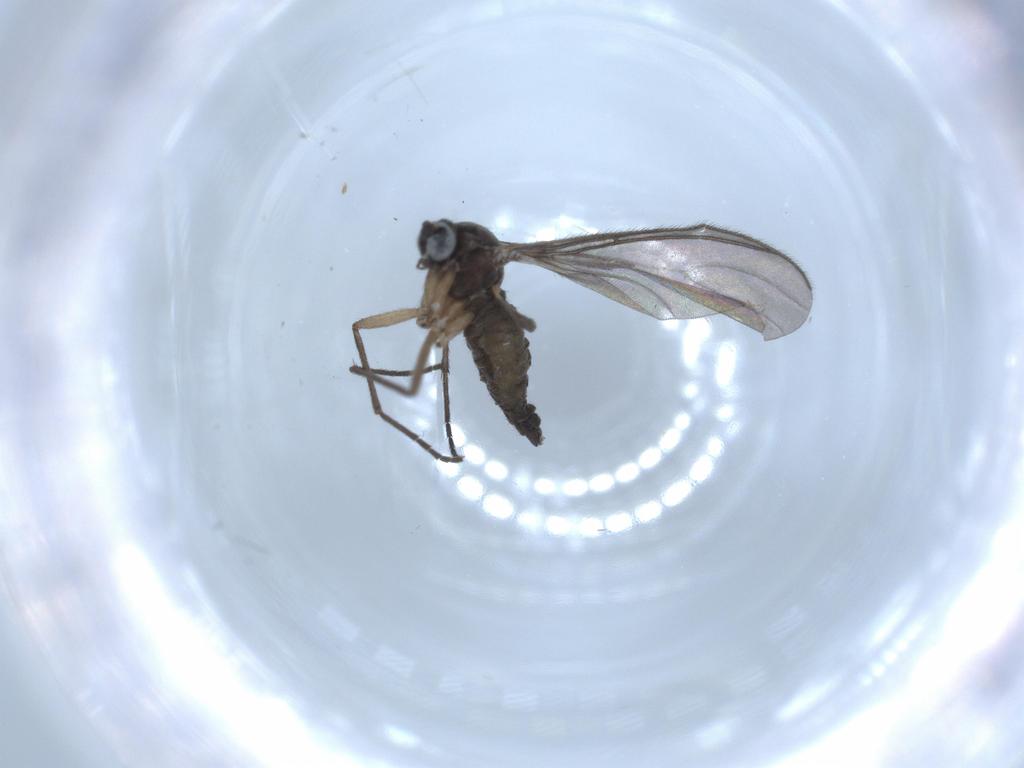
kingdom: Animalia
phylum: Arthropoda
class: Insecta
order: Diptera
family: Sciaridae
